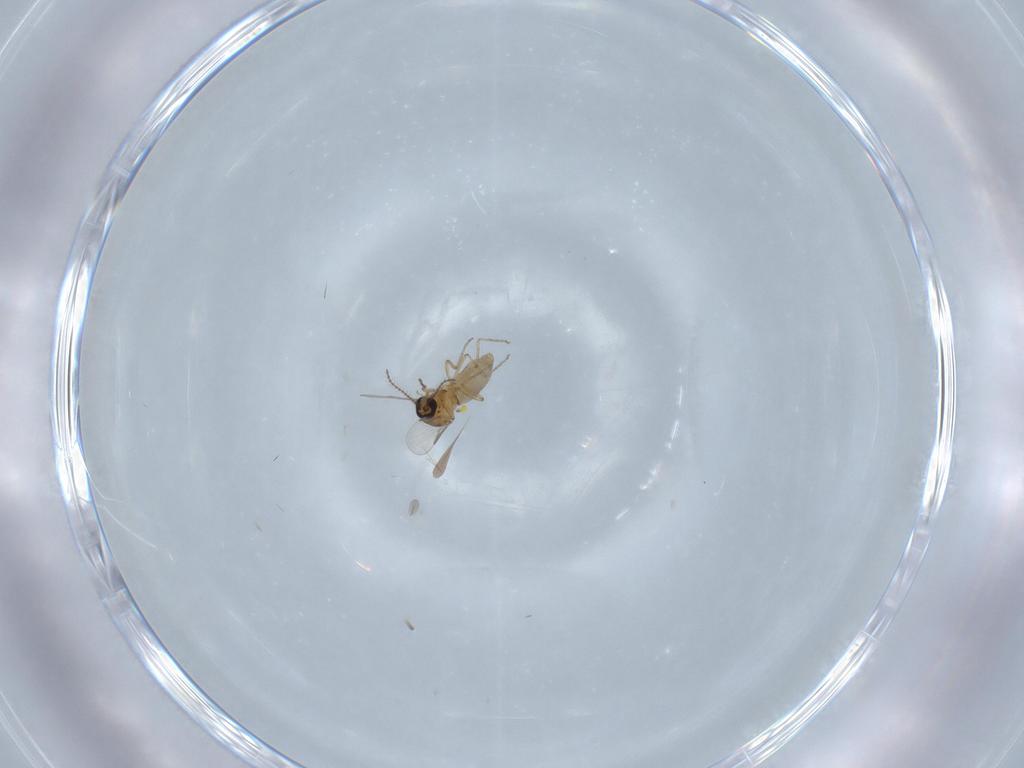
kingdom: Animalia
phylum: Arthropoda
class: Insecta
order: Diptera
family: Ceratopogonidae
